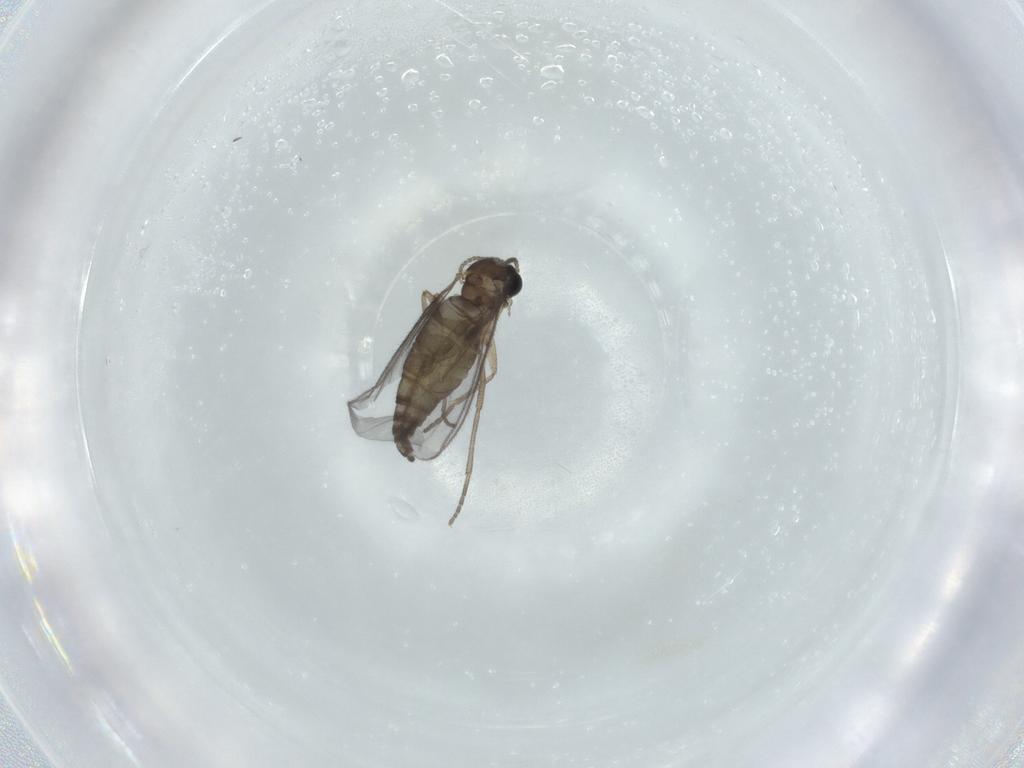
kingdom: Animalia
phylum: Arthropoda
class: Insecta
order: Diptera
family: Sciaridae
